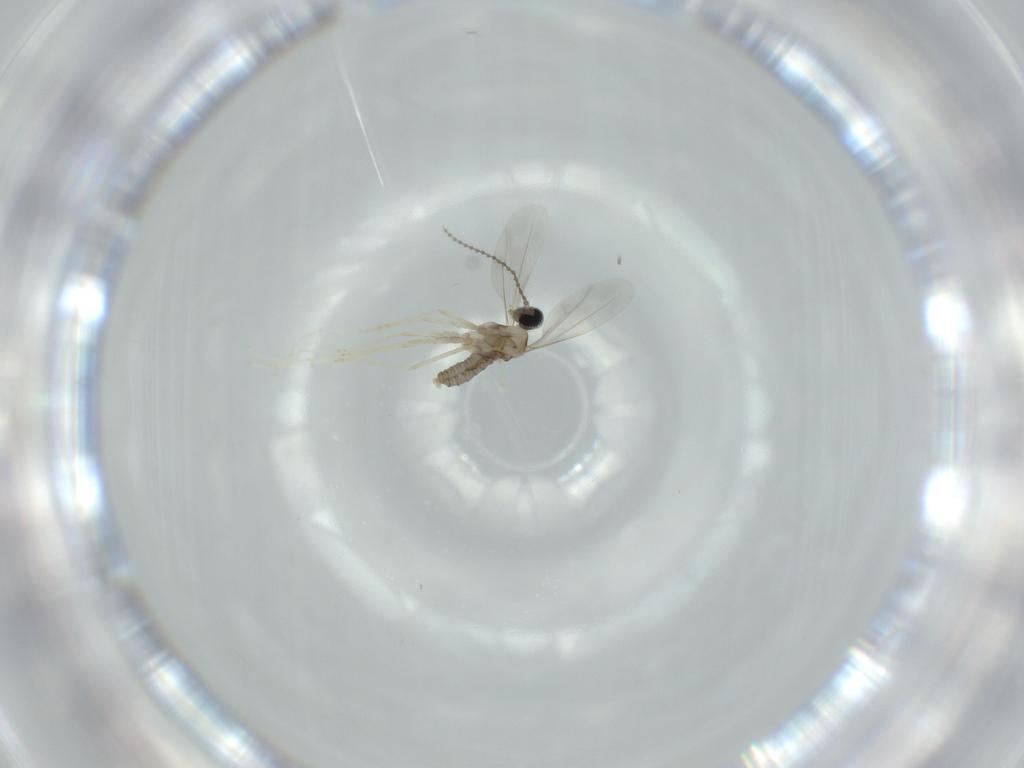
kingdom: Animalia
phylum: Arthropoda
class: Insecta
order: Diptera
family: Cecidomyiidae
